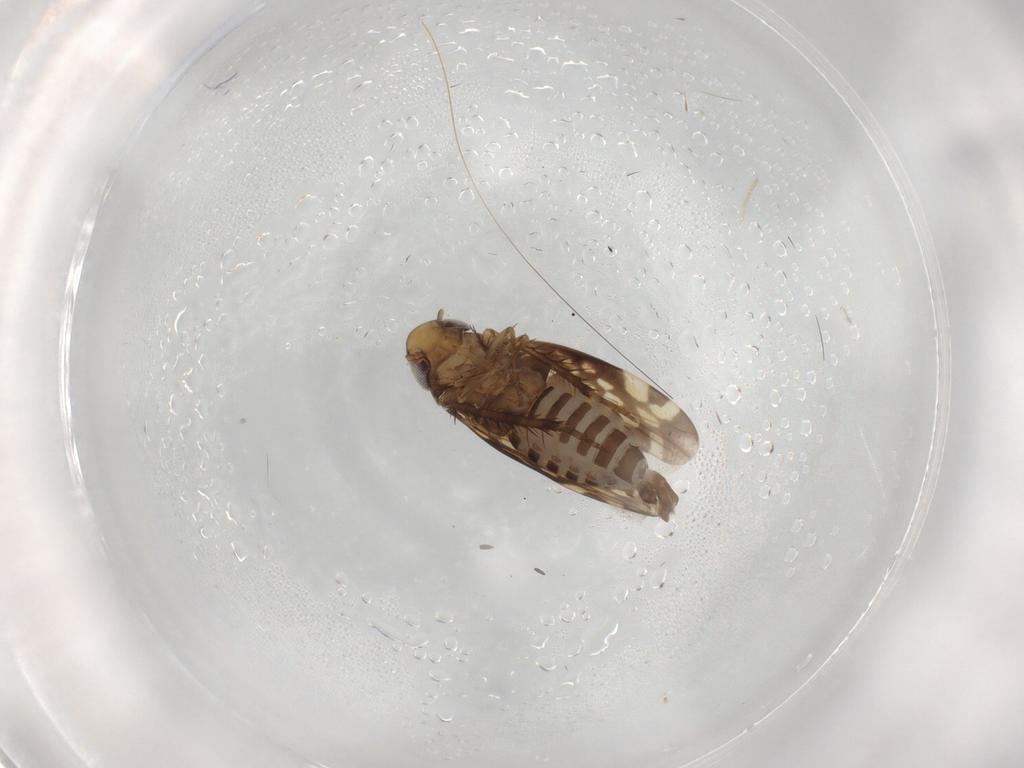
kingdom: Animalia
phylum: Arthropoda
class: Insecta
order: Hemiptera
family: Cicadellidae
